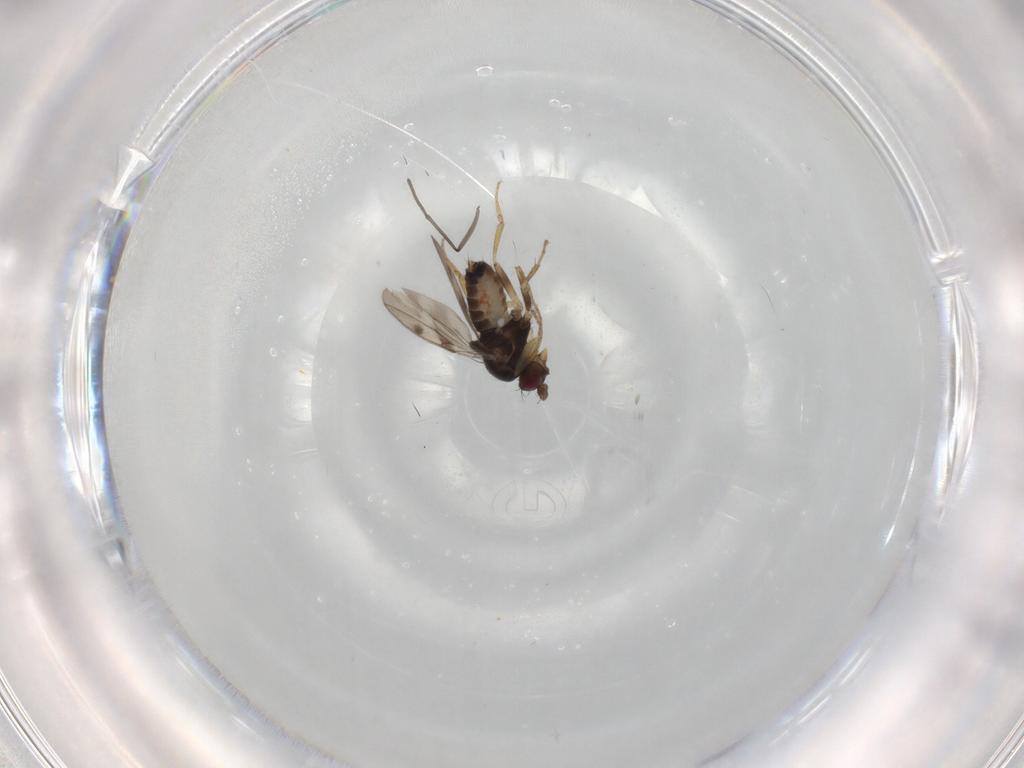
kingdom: Animalia
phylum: Arthropoda
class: Insecta
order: Diptera
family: Sphaeroceridae
